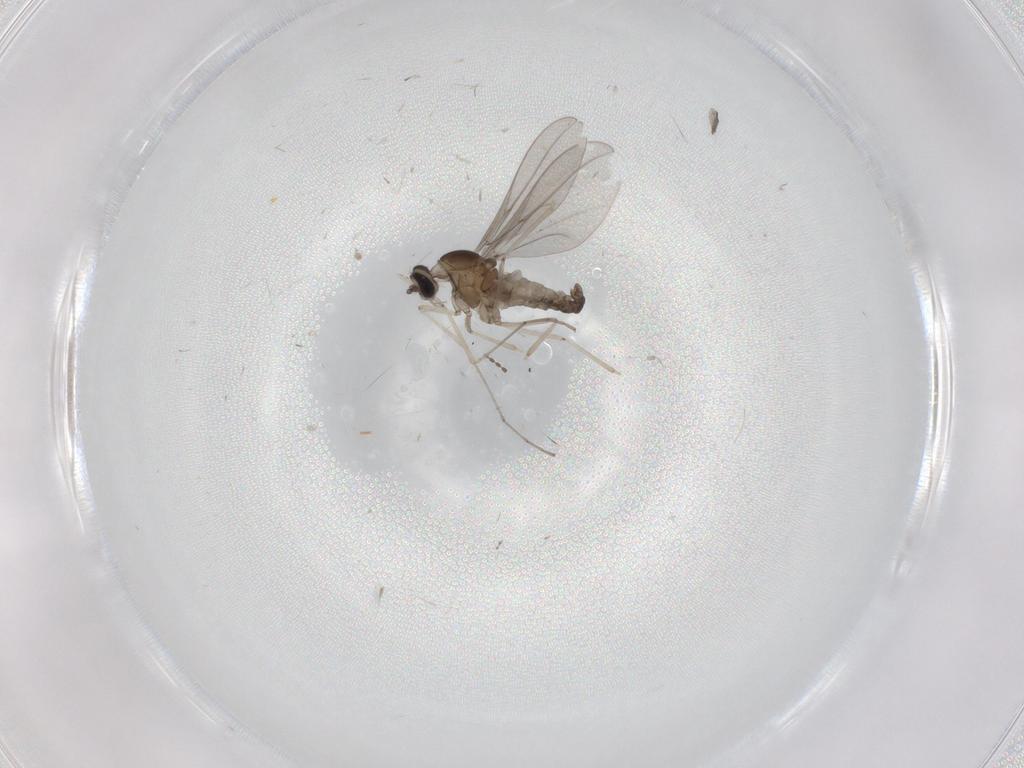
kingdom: Animalia
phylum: Arthropoda
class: Insecta
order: Diptera
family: Cecidomyiidae
